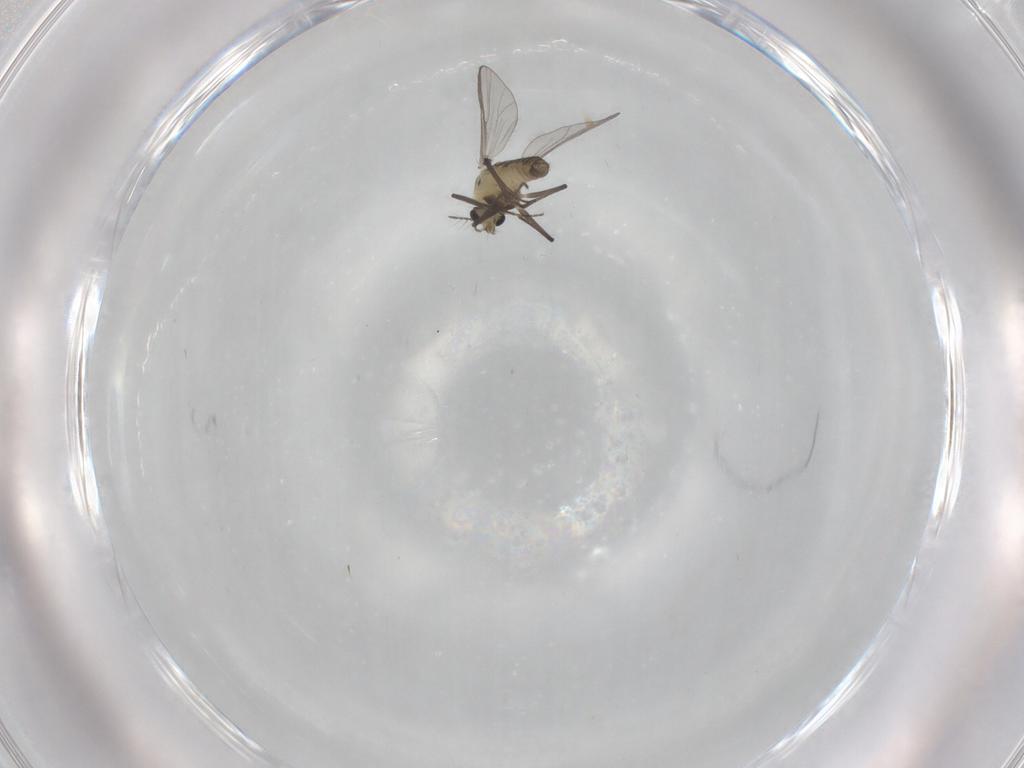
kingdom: Animalia
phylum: Arthropoda
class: Insecta
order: Diptera
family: Chironomidae
